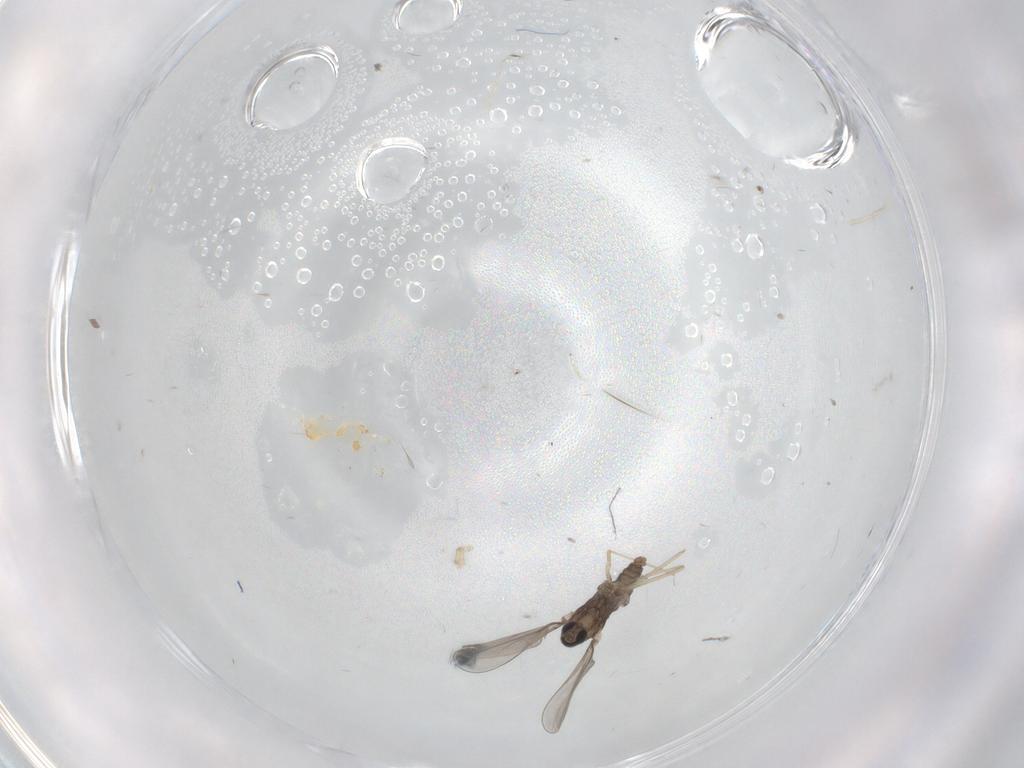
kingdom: Animalia
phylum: Arthropoda
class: Insecta
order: Diptera
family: Cecidomyiidae
